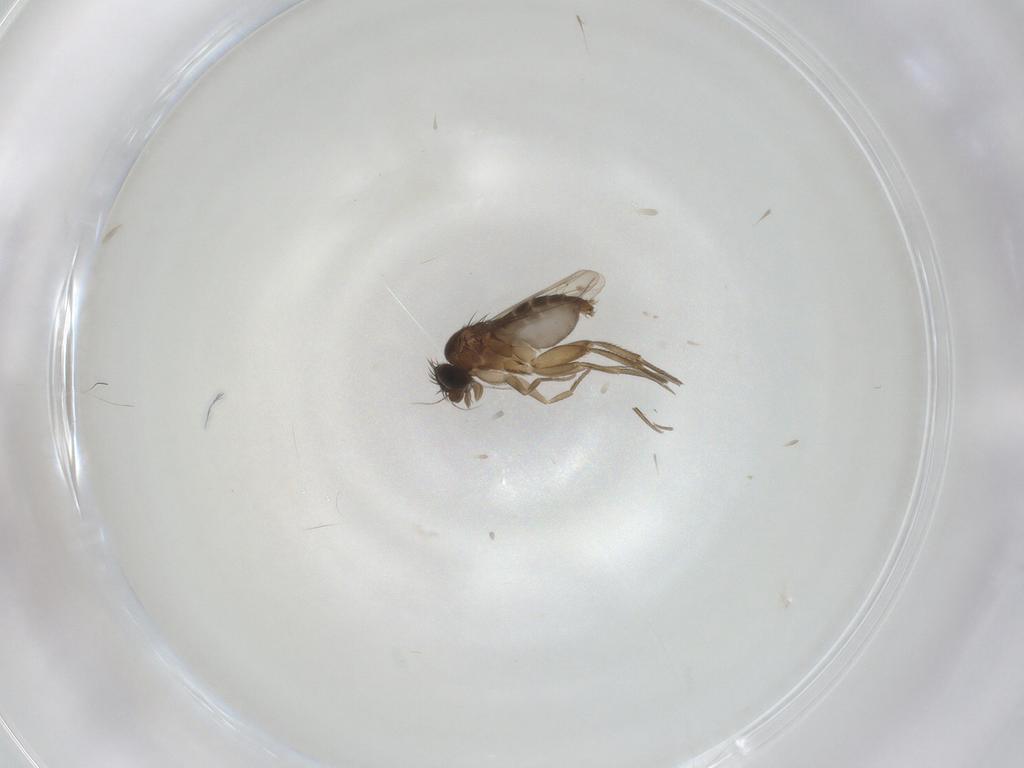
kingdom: Animalia
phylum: Arthropoda
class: Insecta
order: Diptera
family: Phoridae
